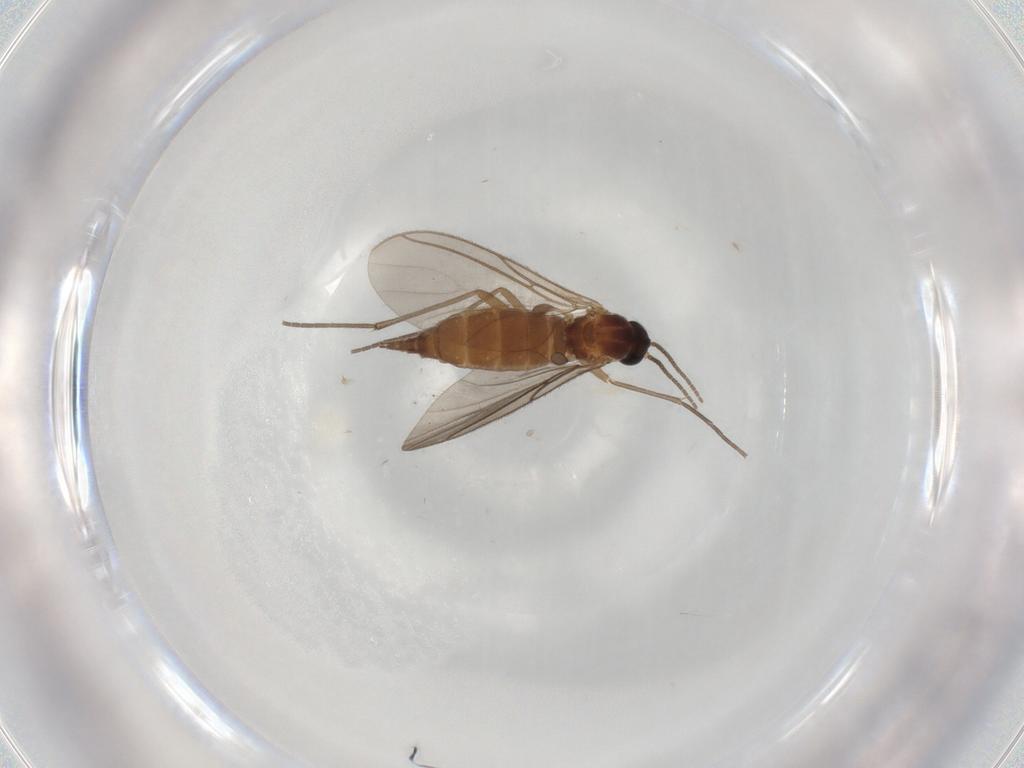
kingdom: Animalia
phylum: Arthropoda
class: Insecta
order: Diptera
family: Sciaridae
